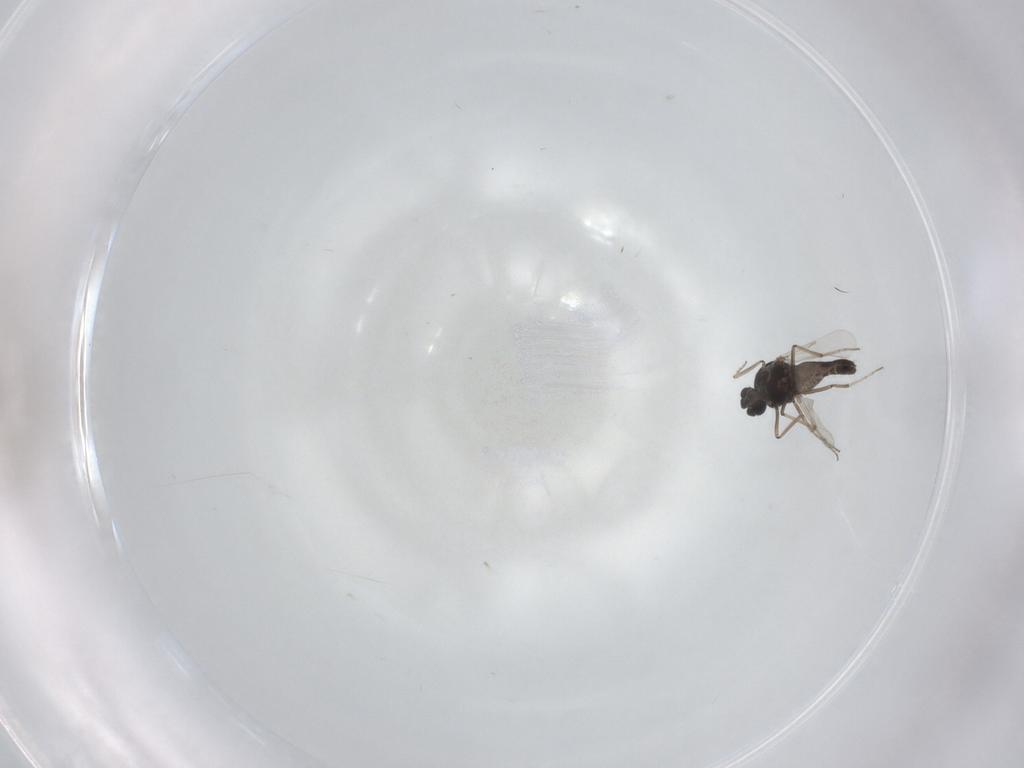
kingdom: Animalia
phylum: Arthropoda
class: Insecta
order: Diptera
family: Ceratopogonidae
